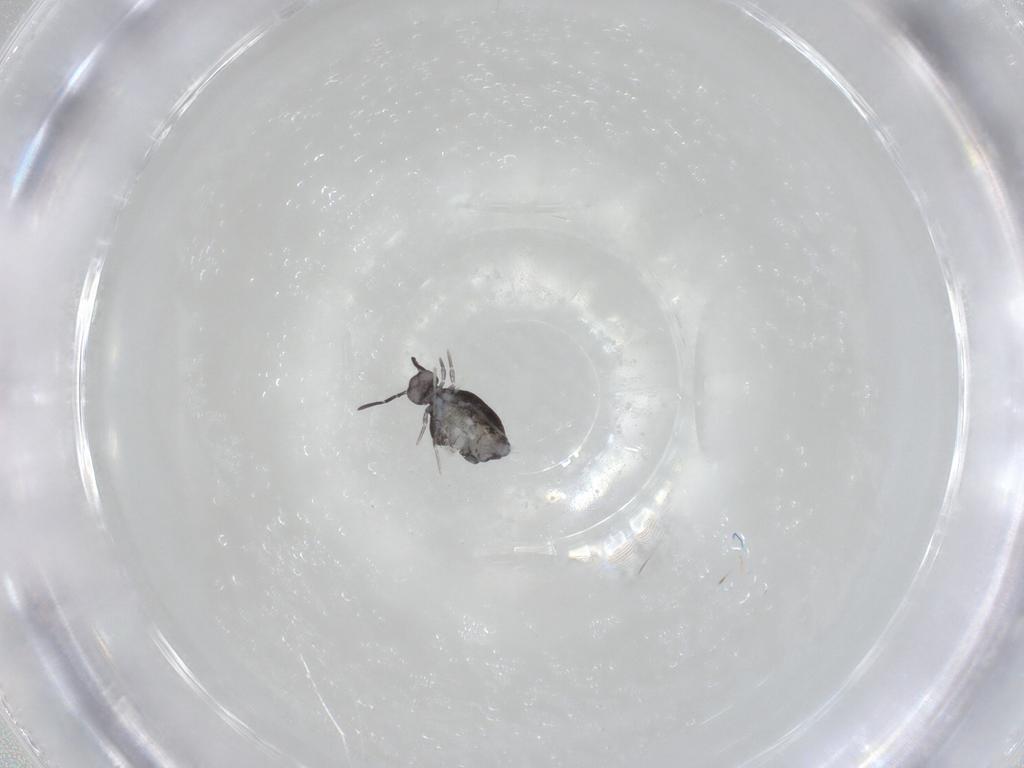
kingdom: Animalia
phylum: Arthropoda
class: Collembola
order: Symphypleona
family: Katiannidae
